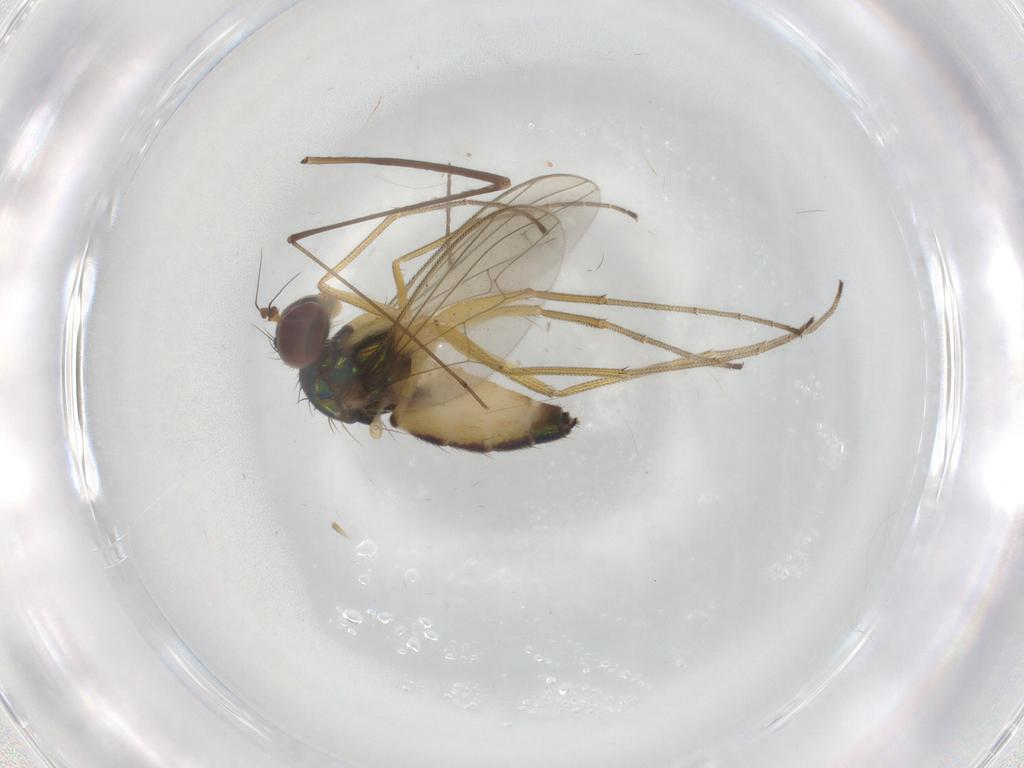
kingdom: Animalia
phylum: Arthropoda
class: Insecta
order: Diptera
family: Dolichopodidae
